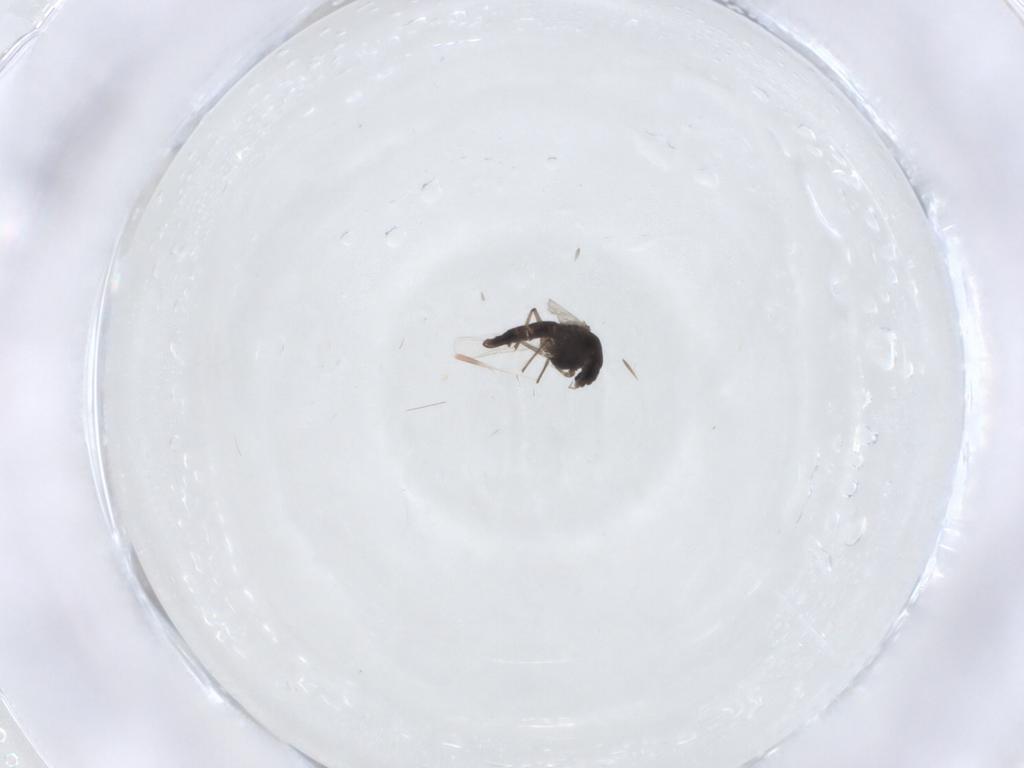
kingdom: Animalia
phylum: Arthropoda
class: Insecta
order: Diptera
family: Chironomidae
